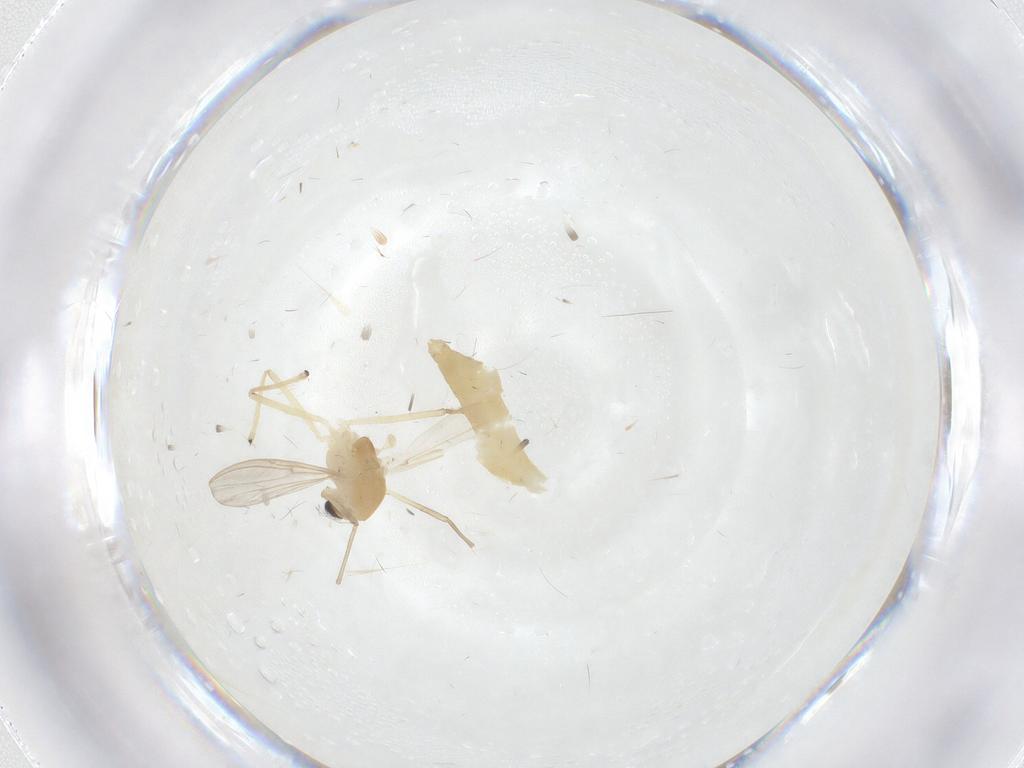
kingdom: Animalia
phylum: Arthropoda
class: Insecta
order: Diptera
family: Chironomidae
